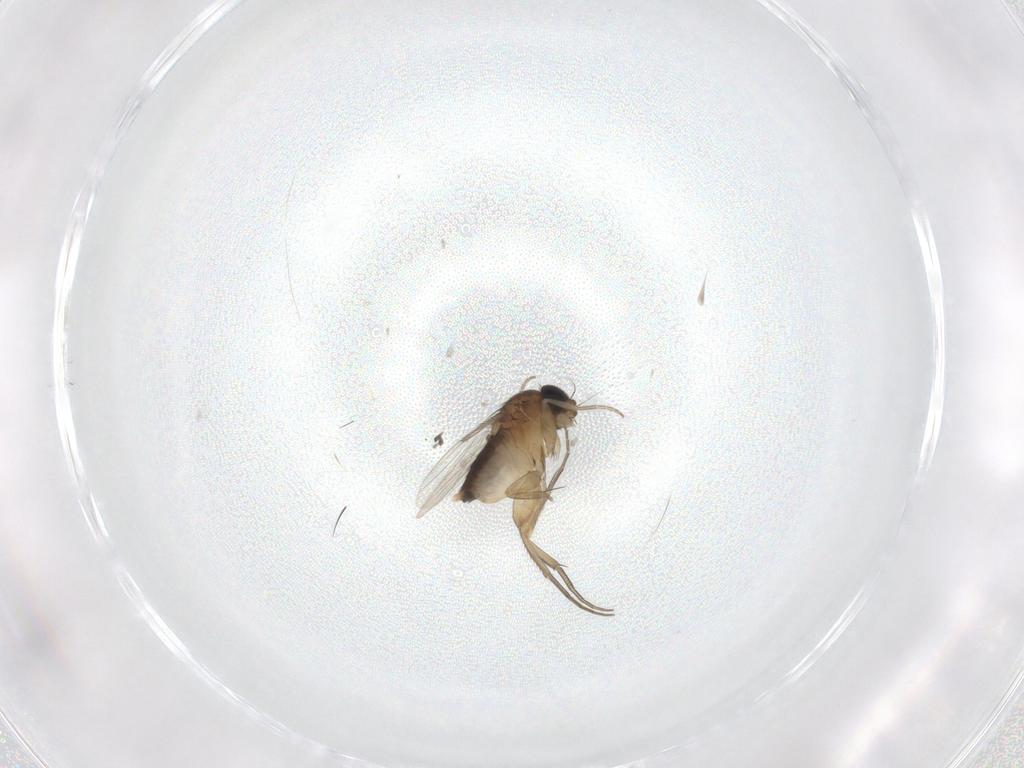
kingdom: Animalia
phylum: Arthropoda
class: Insecta
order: Diptera
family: Phoridae
